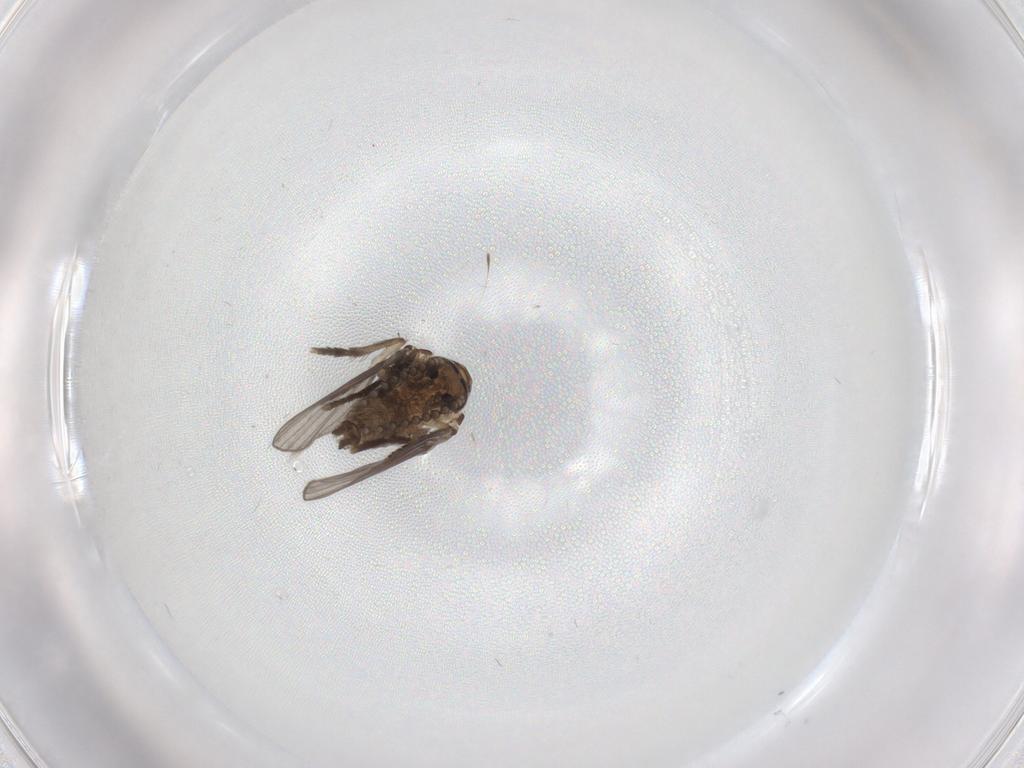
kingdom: Animalia
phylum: Arthropoda
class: Insecta
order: Diptera
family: Psychodidae
